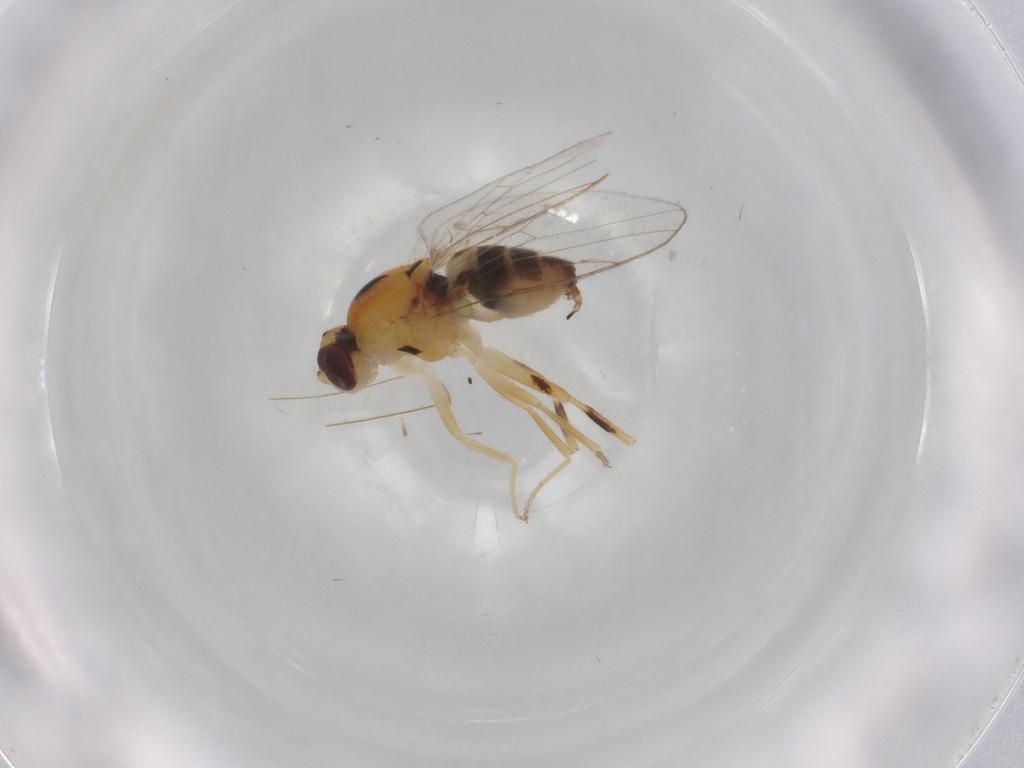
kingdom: Animalia
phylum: Arthropoda
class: Insecta
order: Diptera
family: Chloropidae
